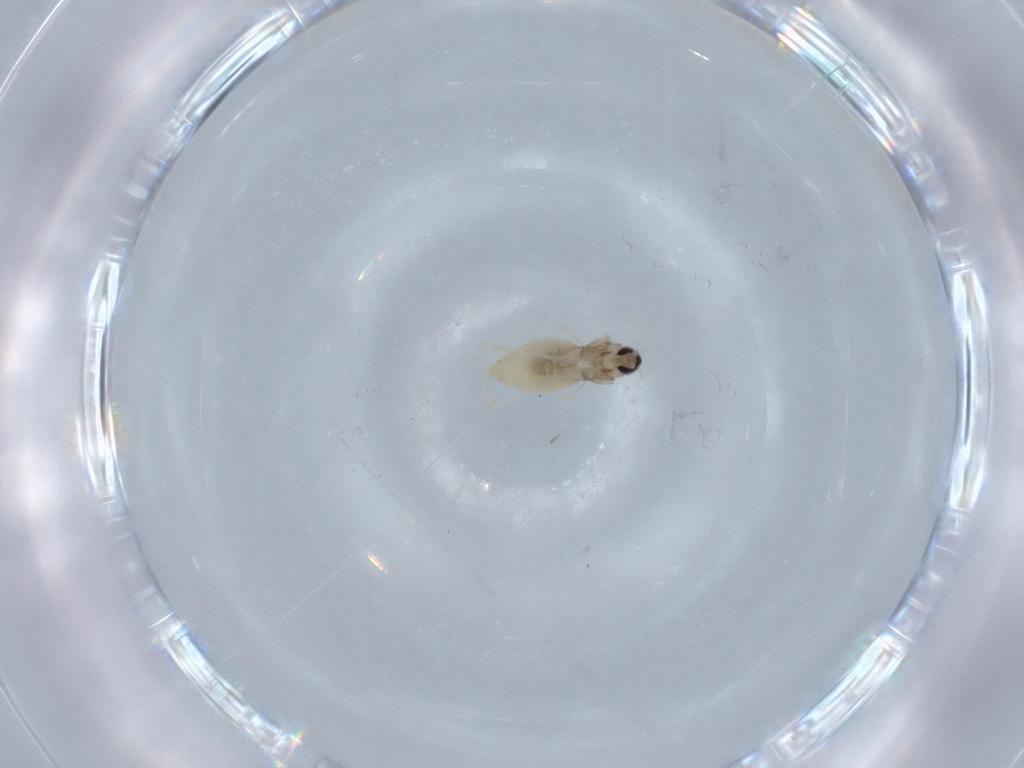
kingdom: Animalia
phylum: Arthropoda
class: Insecta
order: Diptera
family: Cecidomyiidae
